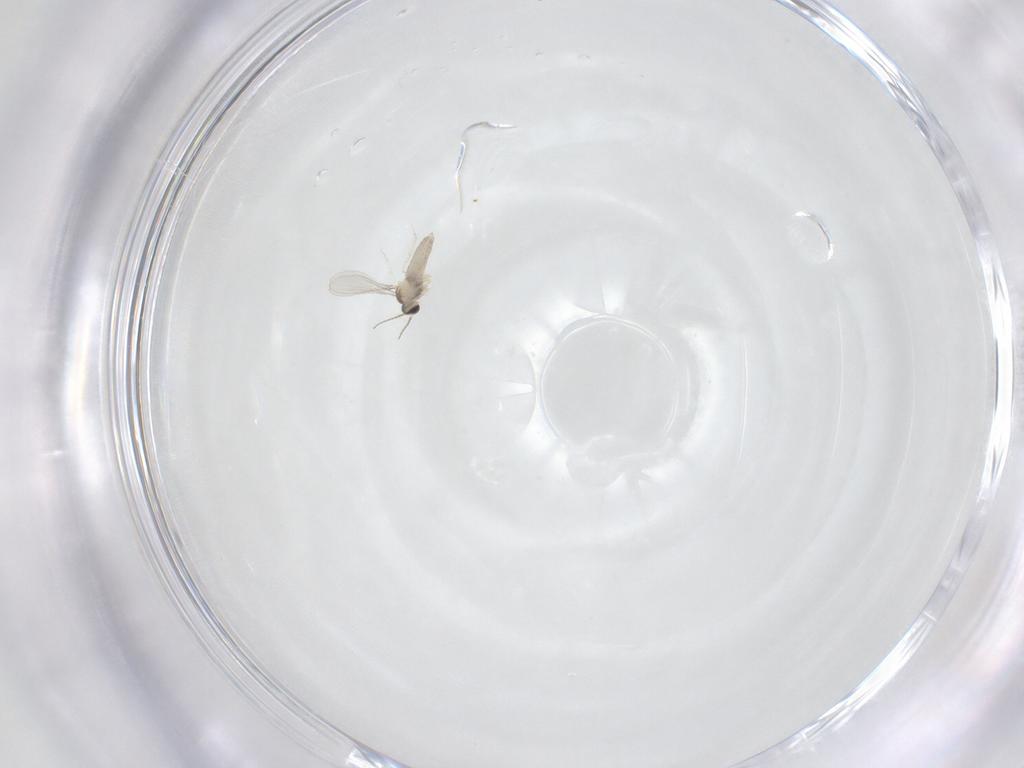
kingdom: Animalia
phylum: Arthropoda
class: Insecta
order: Diptera
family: Cecidomyiidae
